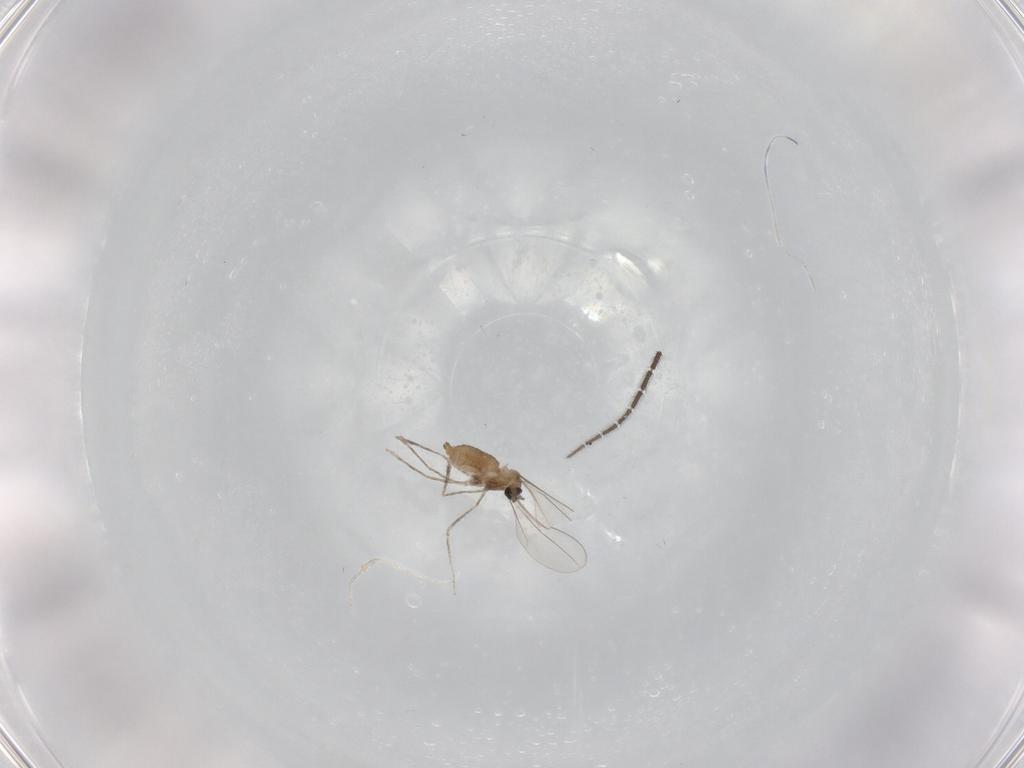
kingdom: Animalia
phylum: Arthropoda
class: Insecta
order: Diptera
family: Cecidomyiidae
